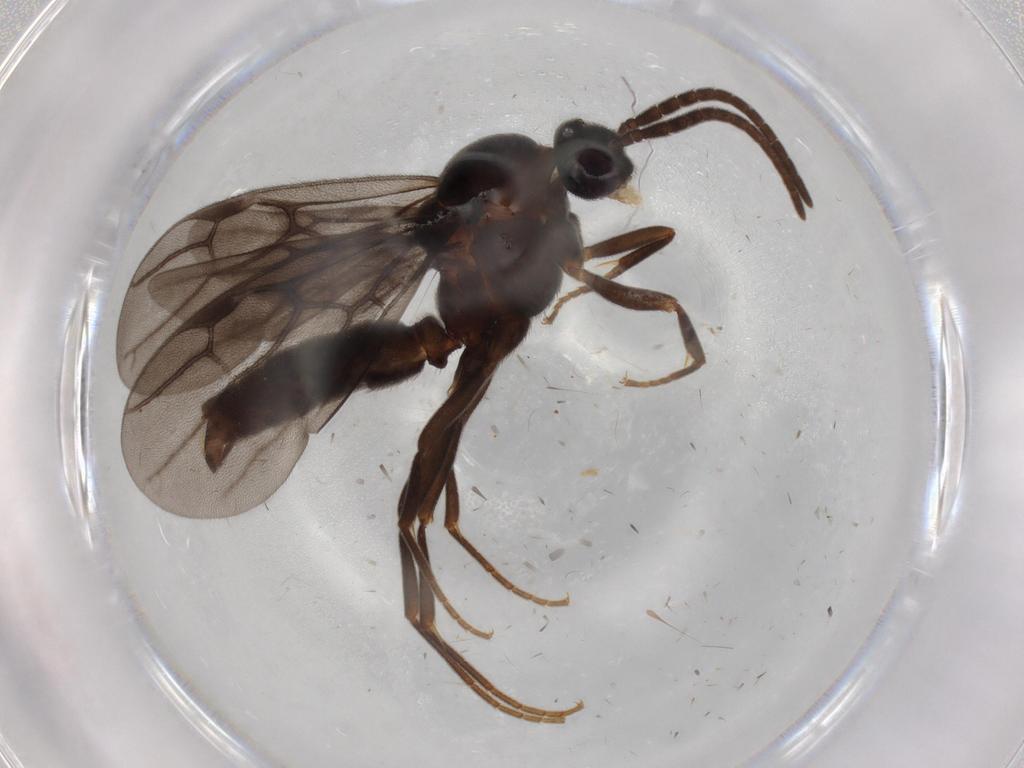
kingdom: Animalia
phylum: Arthropoda
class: Insecta
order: Hymenoptera
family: Formicidae
